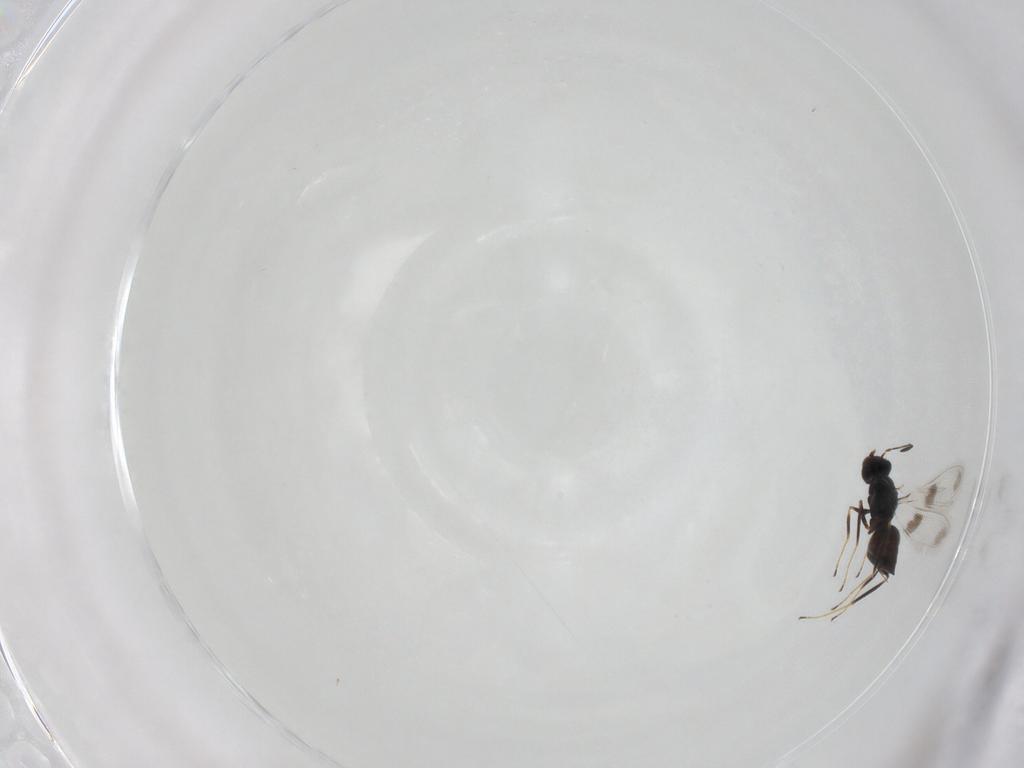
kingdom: Animalia
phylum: Arthropoda
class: Insecta
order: Hymenoptera
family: Mymaridae
